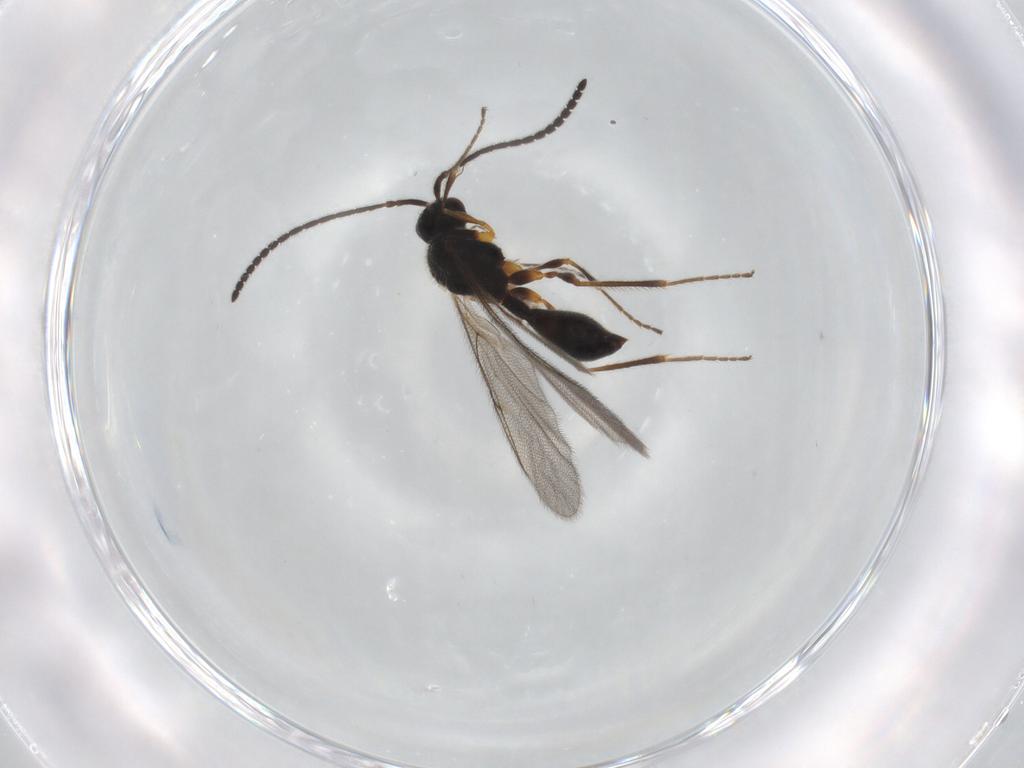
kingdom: Animalia
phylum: Arthropoda
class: Insecta
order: Hymenoptera
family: Diapriidae
